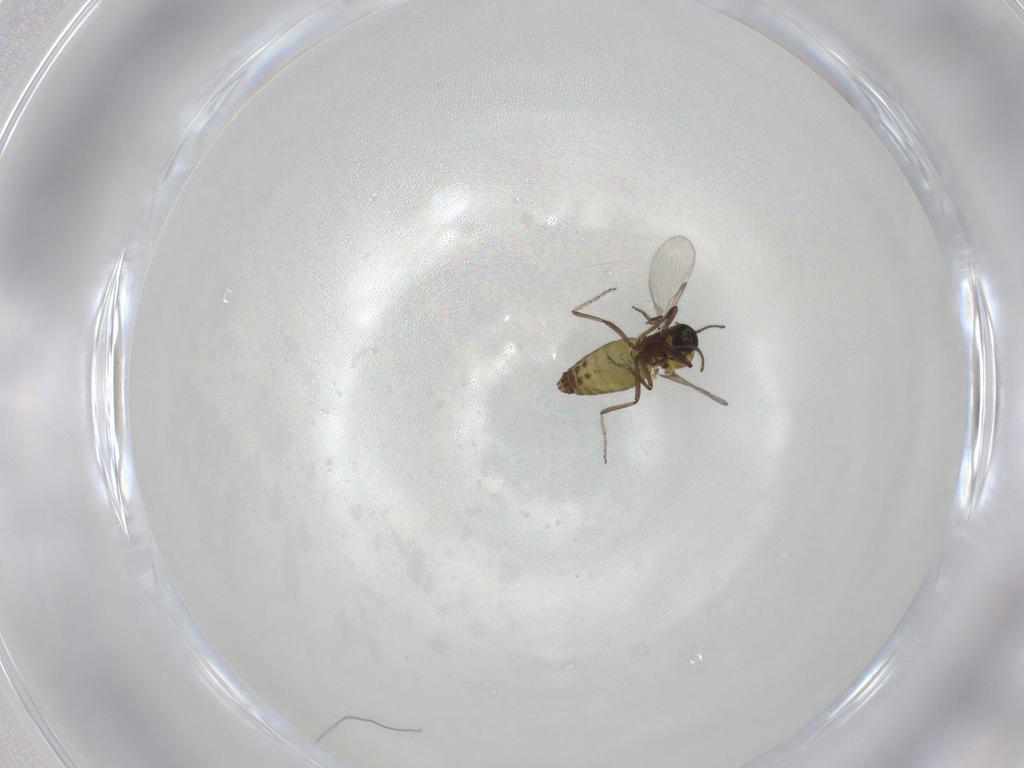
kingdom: Animalia
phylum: Arthropoda
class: Insecta
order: Diptera
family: Ceratopogonidae
